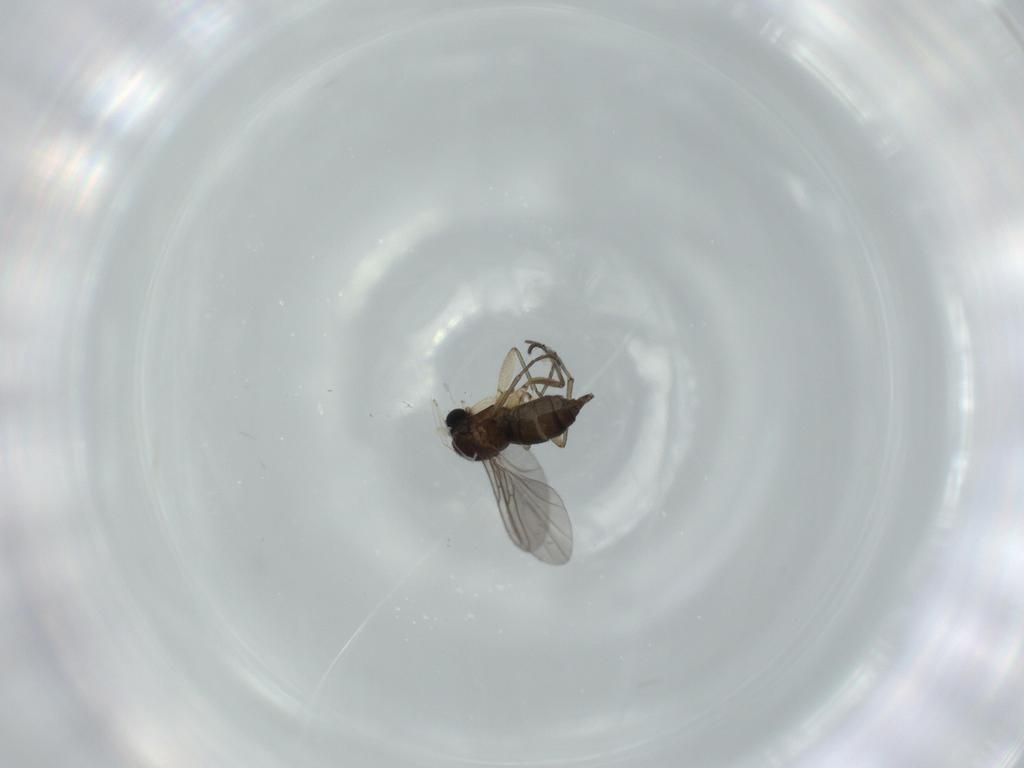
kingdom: Animalia
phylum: Arthropoda
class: Insecta
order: Diptera
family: Sciaridae
